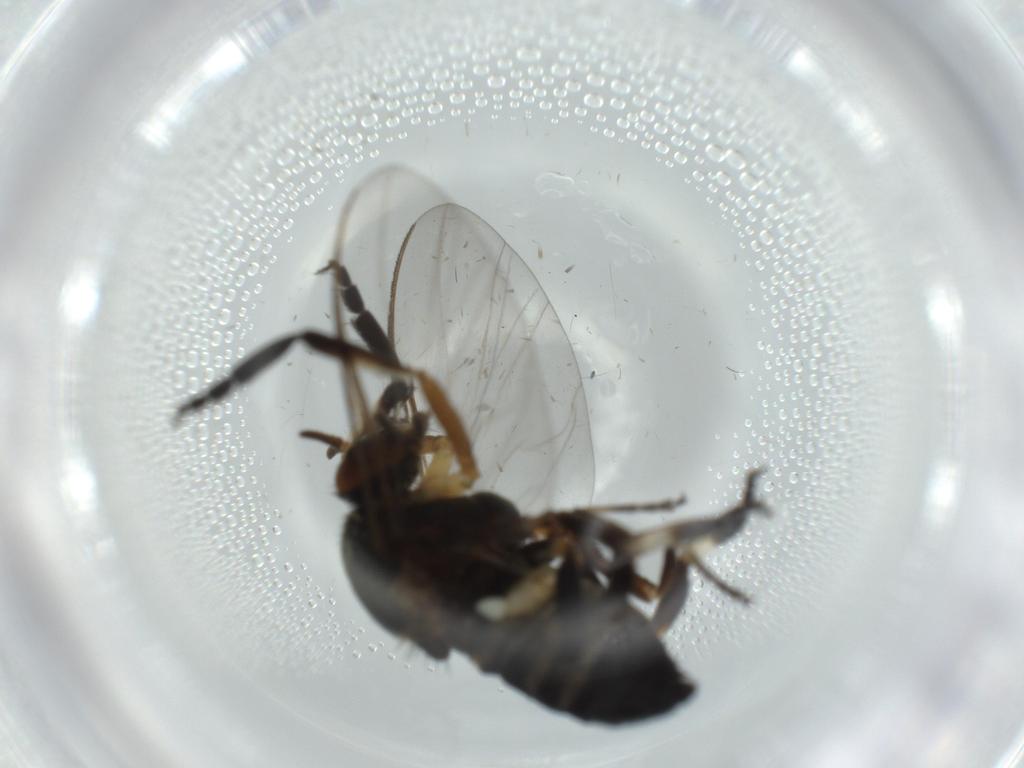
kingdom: Animalia
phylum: Arthropoda
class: Insecta
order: Diptera
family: Hybotidae
